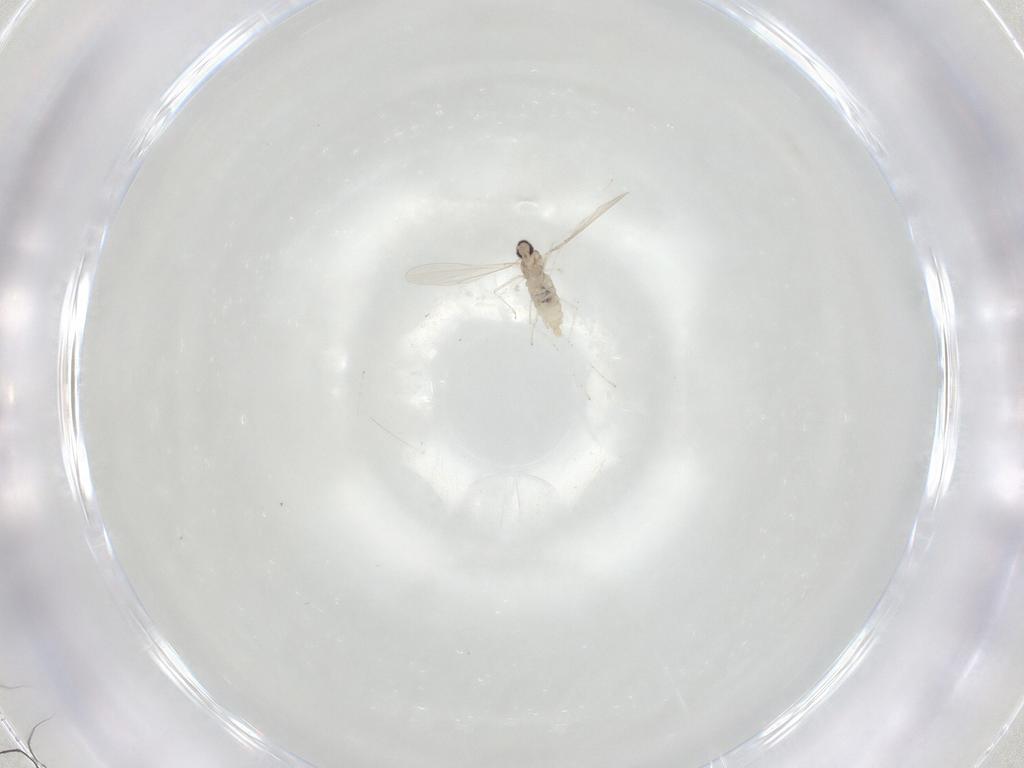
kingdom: Animalia
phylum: Arthropoda
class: Insecta
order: Diptera
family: Cecidomyiidae
